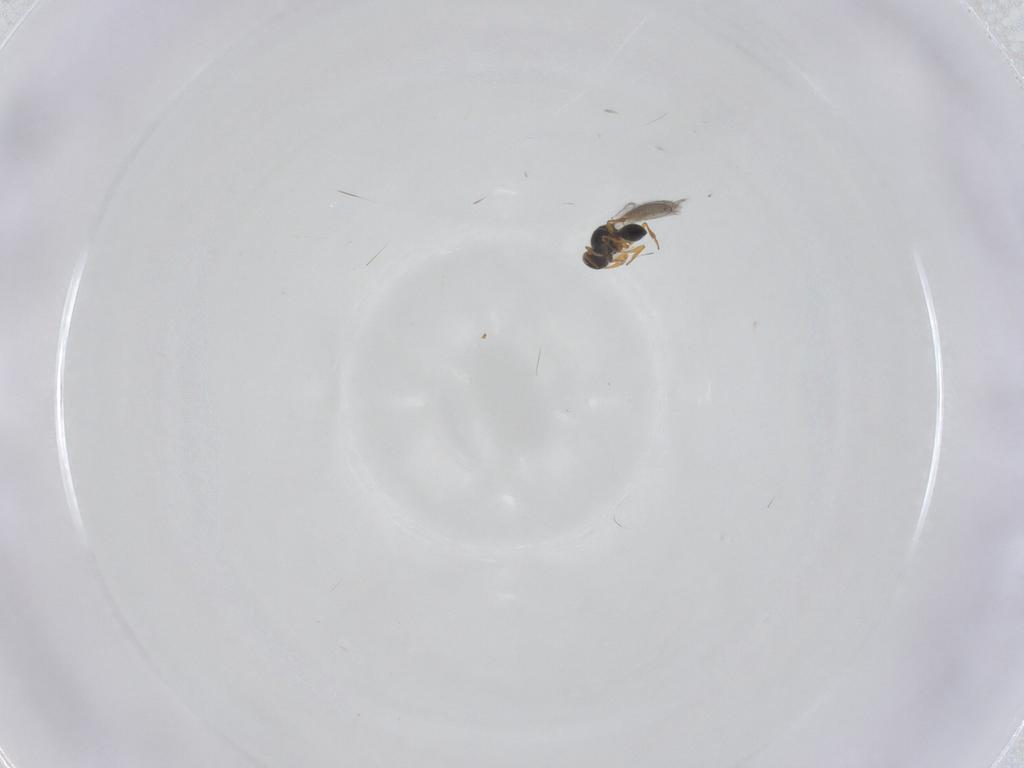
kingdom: Animalia
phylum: Arthropoda
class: Insecta
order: Hymenoptera
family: Platygastridae
